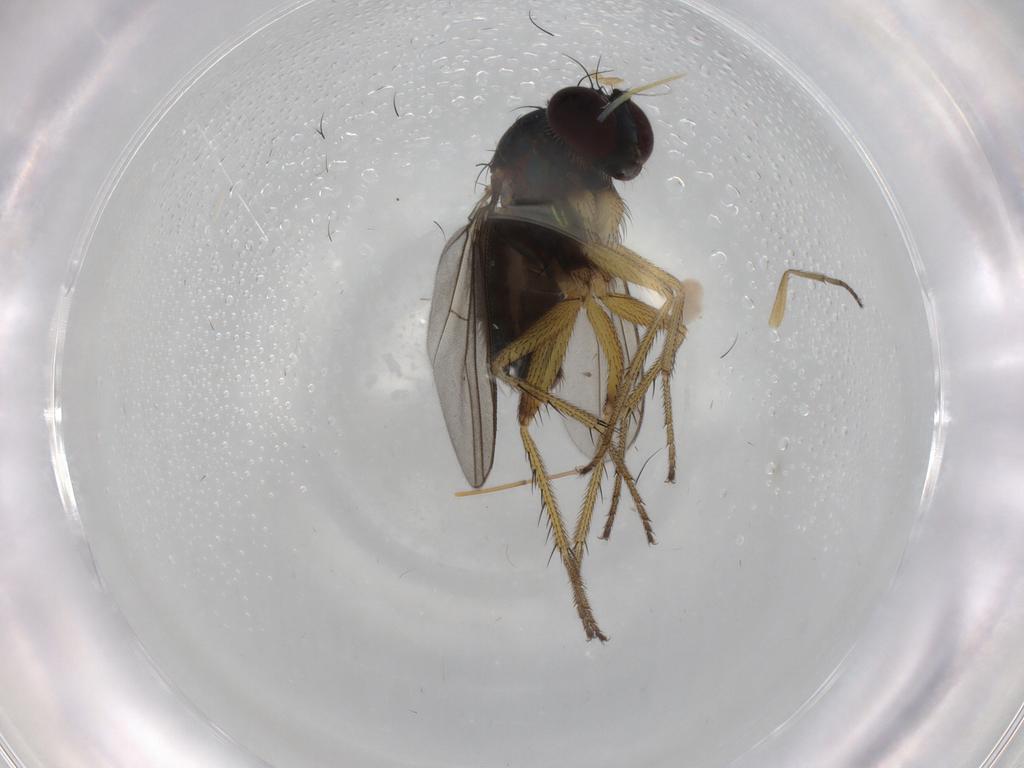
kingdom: Animalia
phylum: Arthropoda
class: Insecta
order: Diptera
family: Dolichopodidae
